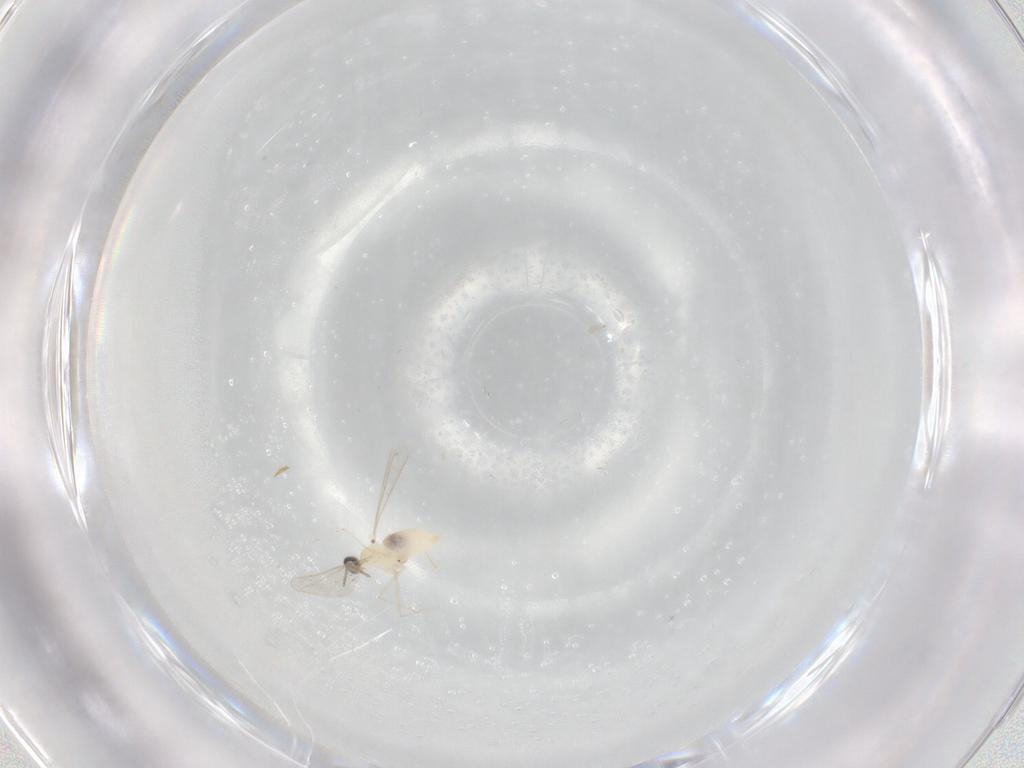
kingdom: Animalia
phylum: Arthropoda
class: Insecta
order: Diptera
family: Cecidomyiidae
